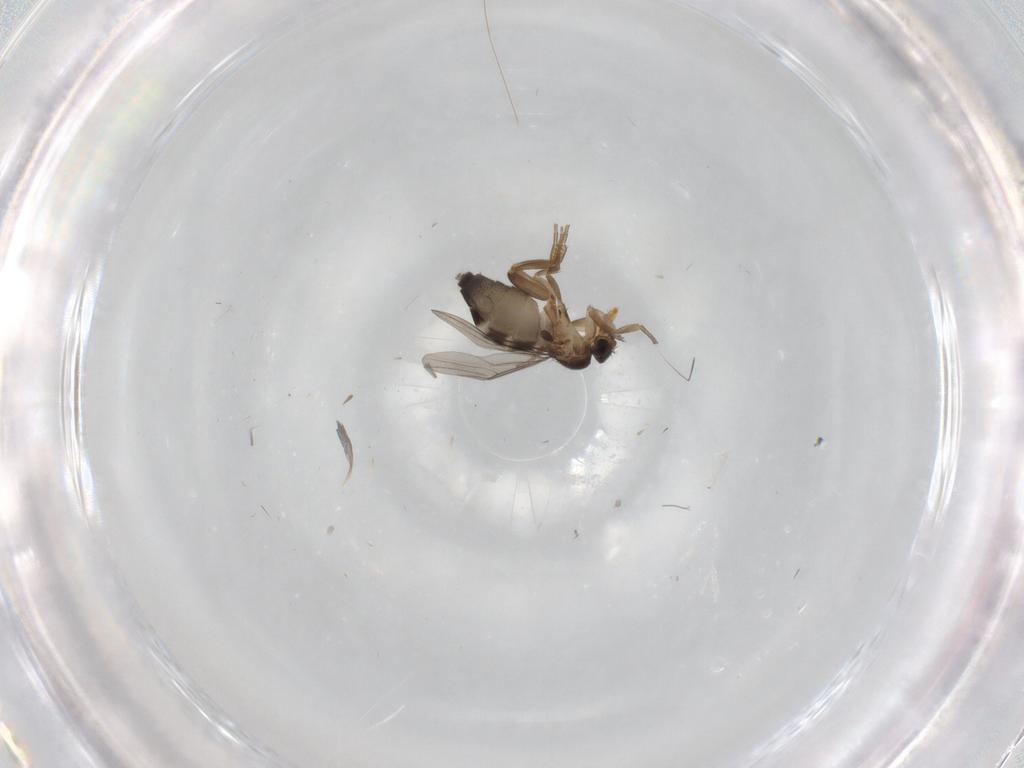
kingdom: Animalia
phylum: Arthropoda
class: Insecta
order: Diptera
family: Phoridae
